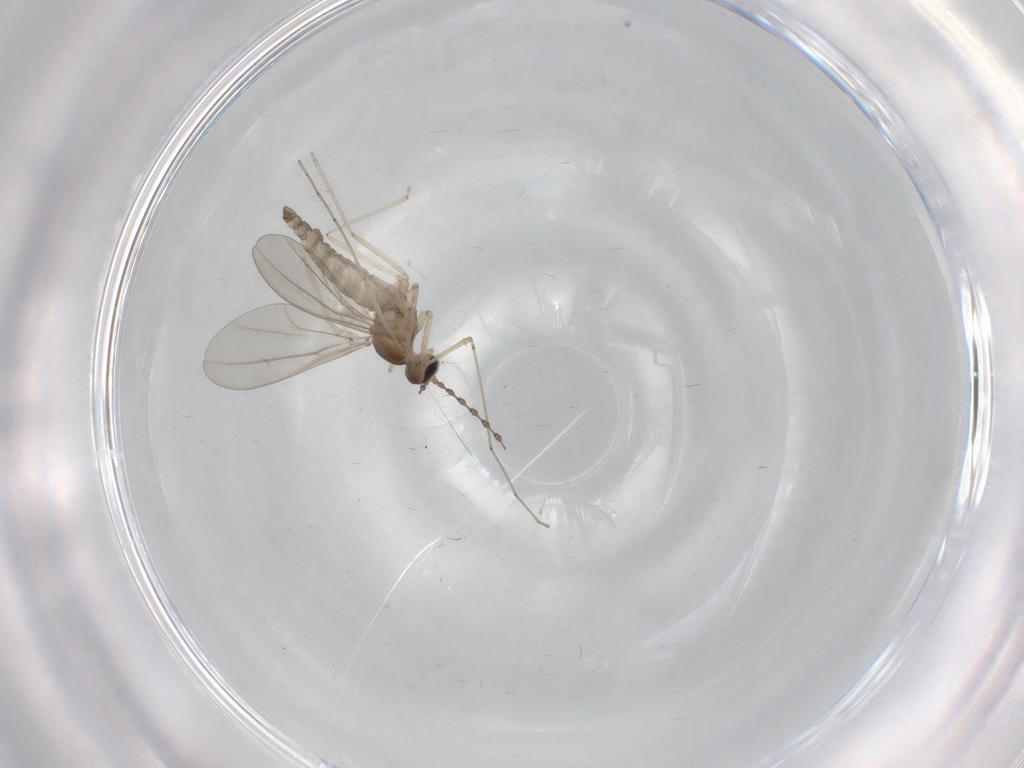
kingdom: Animalia
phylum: Arthropoda
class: Insecta
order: Diptera
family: Cecidomyiidae
